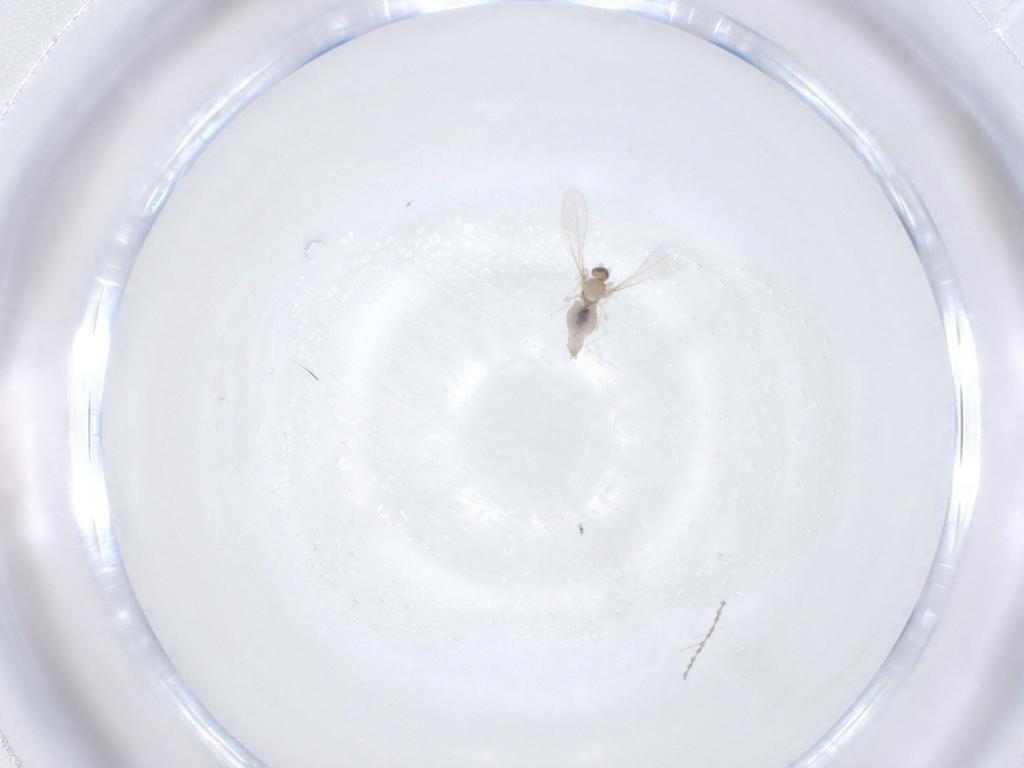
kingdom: Animalia
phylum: Arthropoda
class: Insecta
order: Diptera
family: Cecidomyiidae
